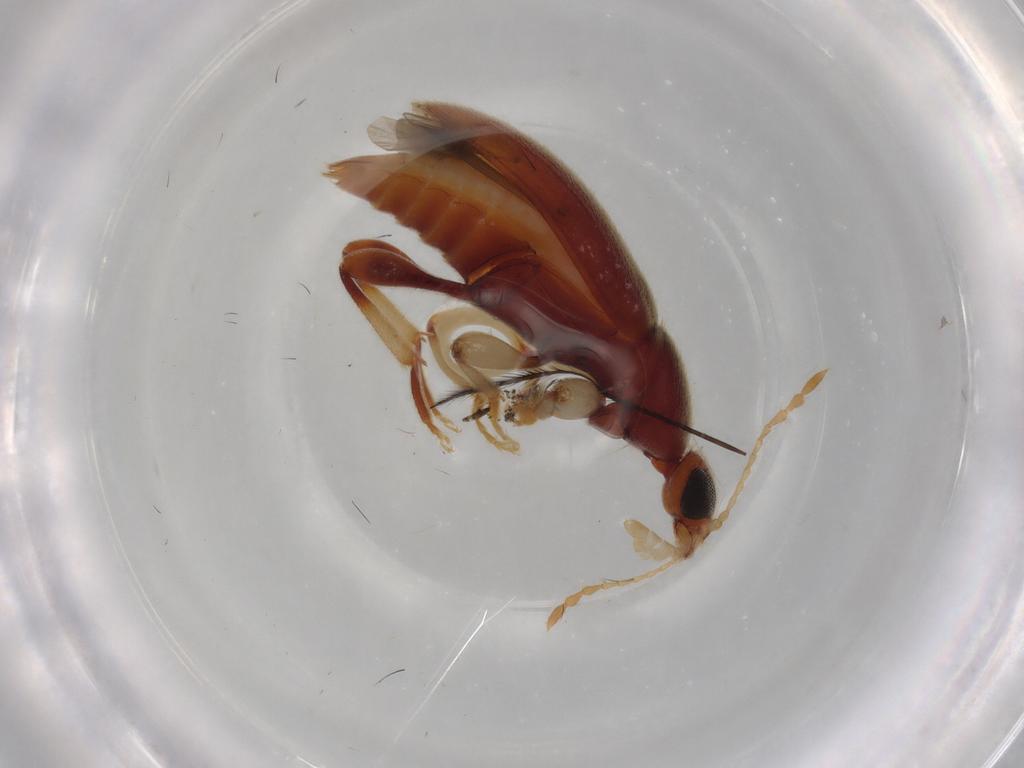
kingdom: Animalia
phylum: Arthropoda
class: Insecta
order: Coleoptera
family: Anthicidae
